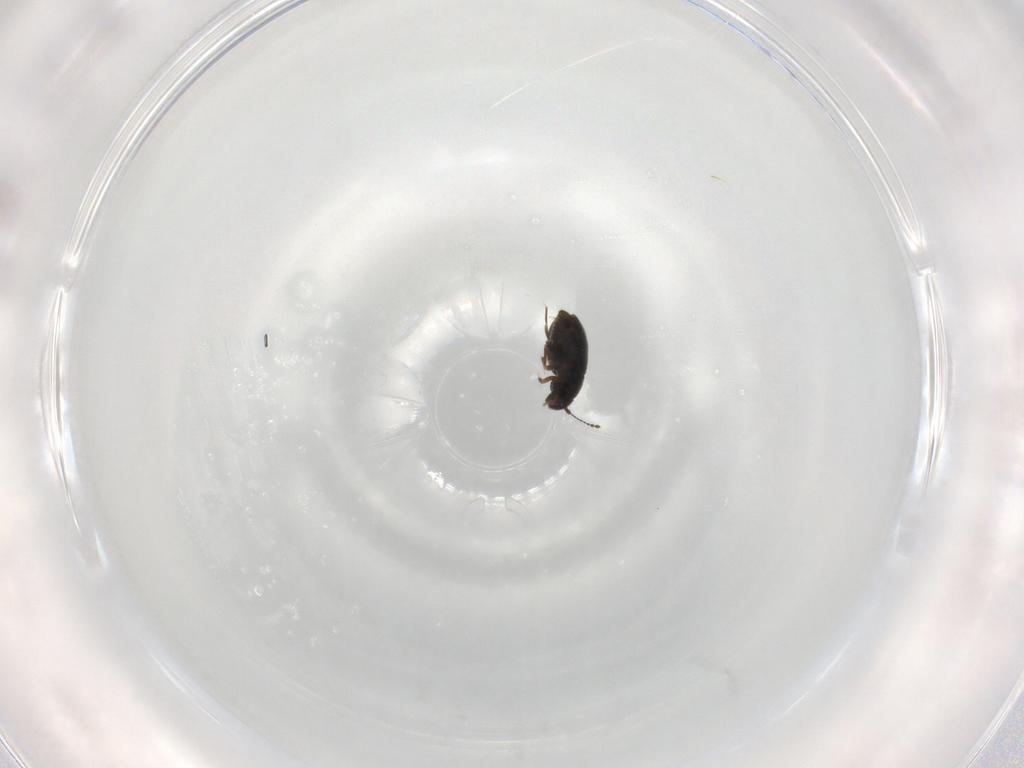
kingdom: Animalia
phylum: Arthropoda
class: Insecta
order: Coleoptera
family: Ptiliidae
